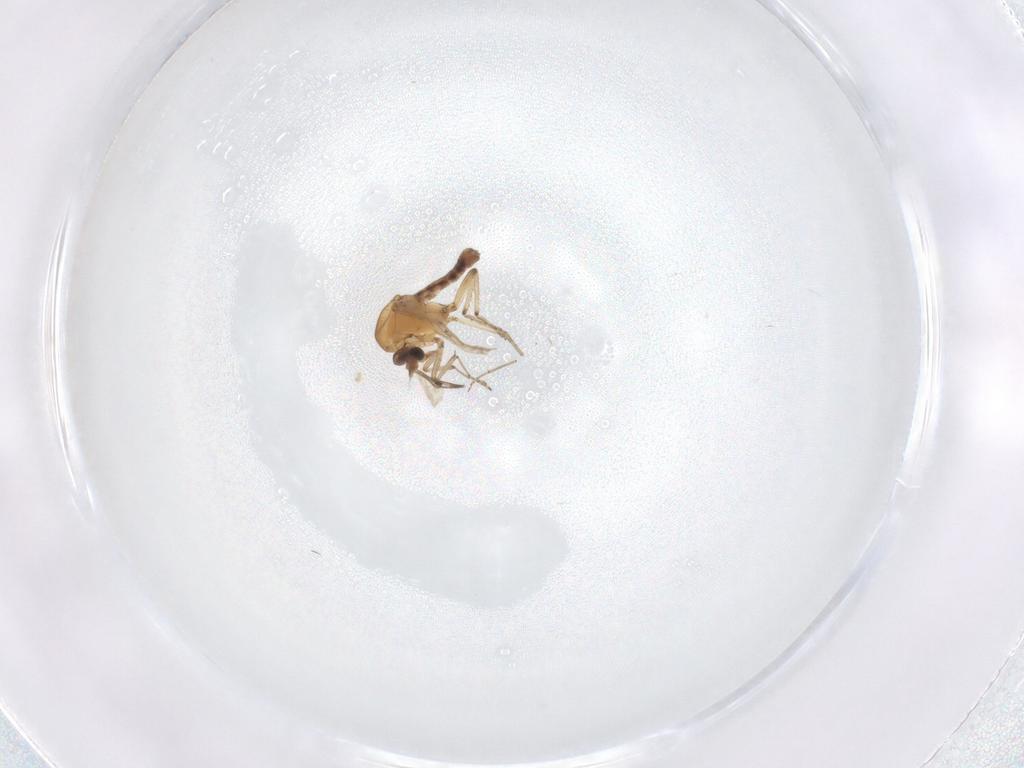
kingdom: Animalia
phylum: Arthropoda
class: Insecta
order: Diptera
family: Ceratopogonidae
